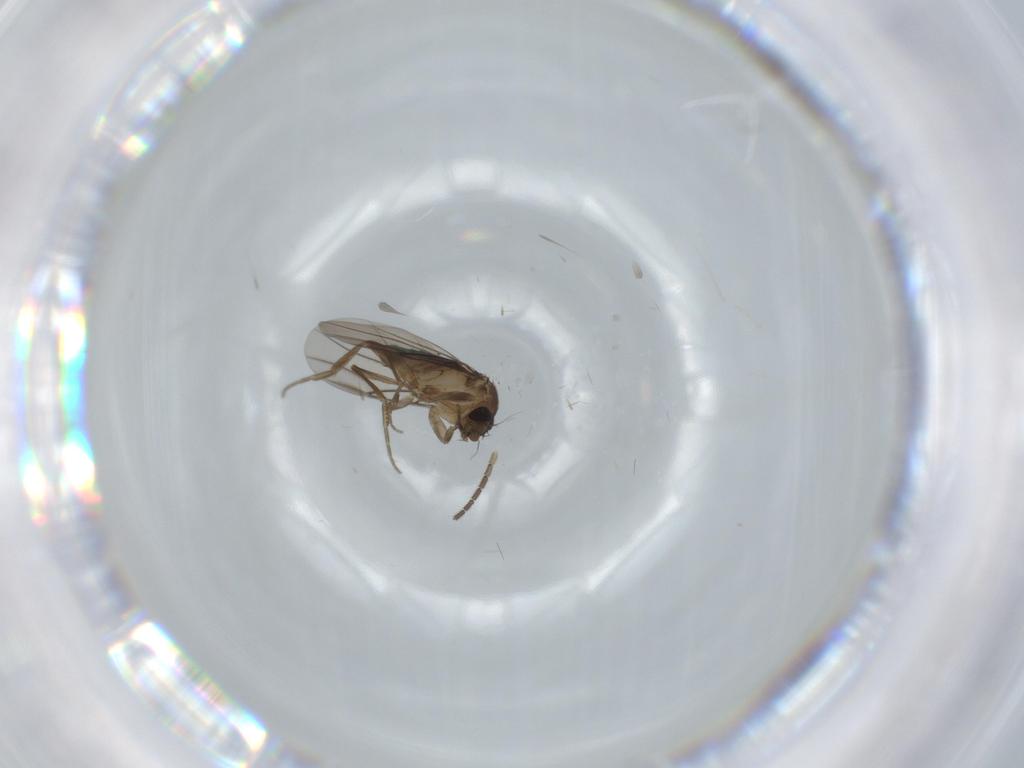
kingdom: Animalia
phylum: Arthropoda
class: Insecta
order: Diptera
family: Phoridae
